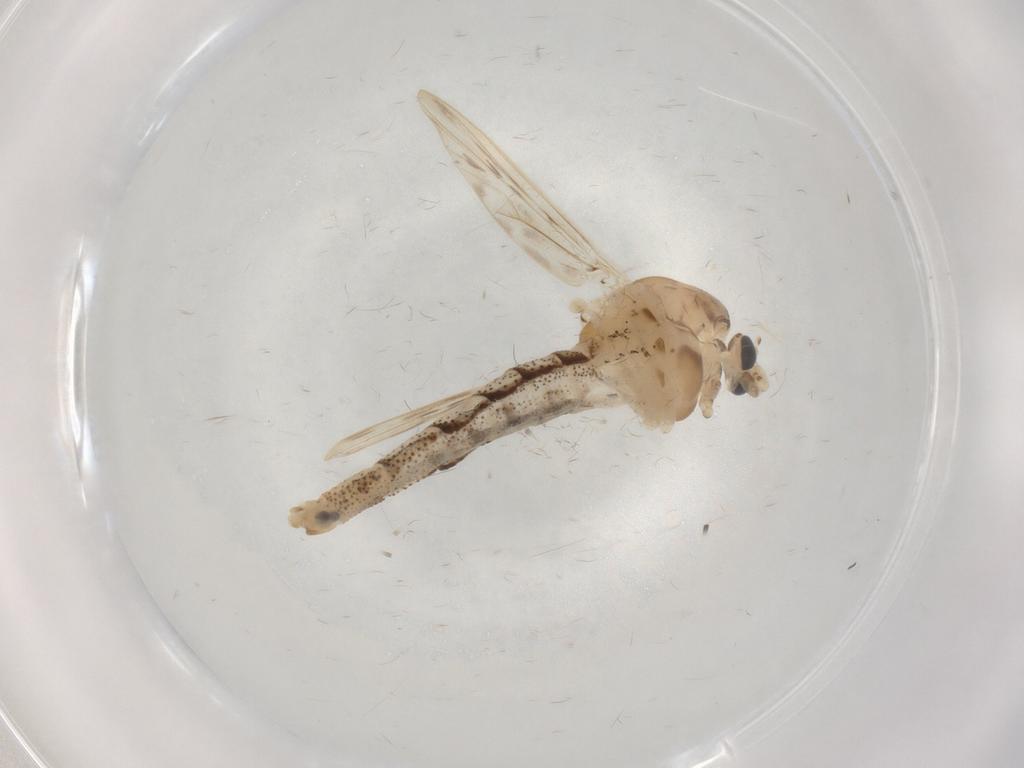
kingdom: Animalia
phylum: Arthropoda
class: Insecta
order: Diptera
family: Chaoboridae
